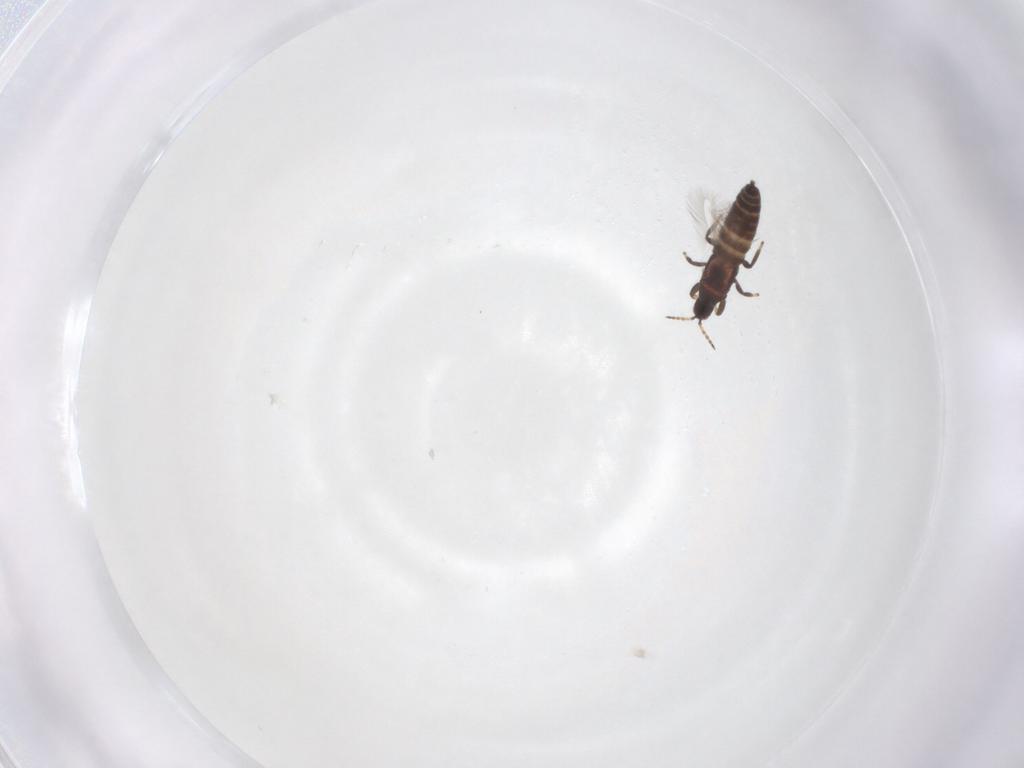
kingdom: Animalia
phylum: Arthropoda
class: Insecta
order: Thysanoptera
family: Phlaeothripidae
